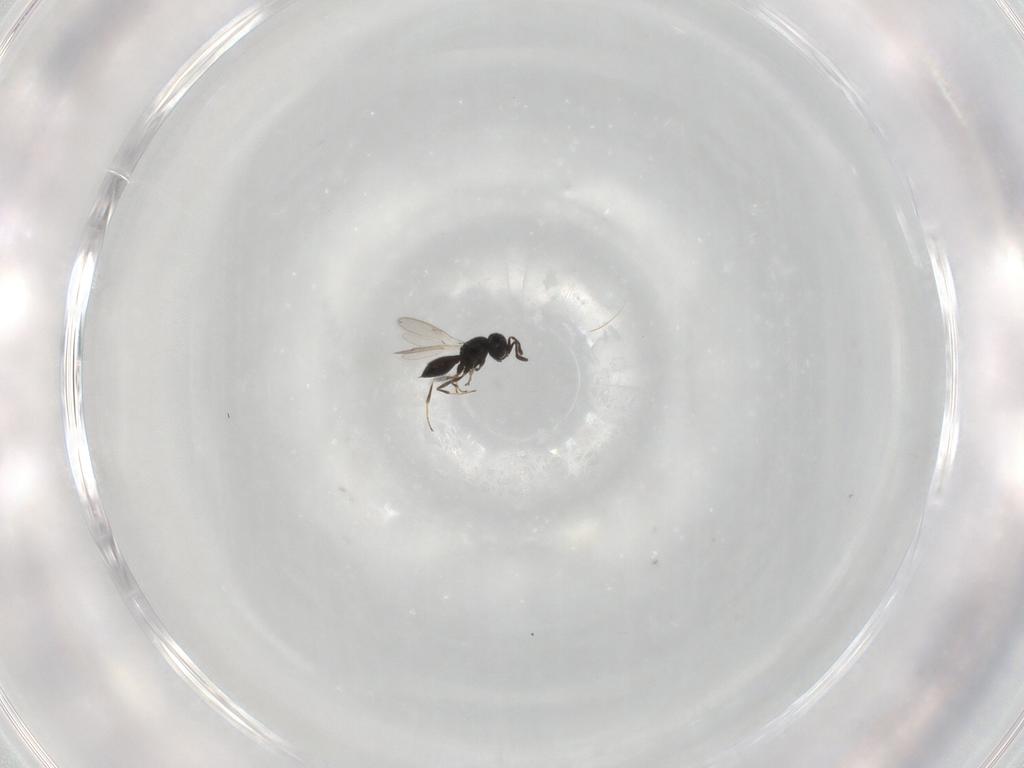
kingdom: Animalia
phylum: Arthropoda
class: Insecta
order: Hymenoptera
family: Scelionidae
